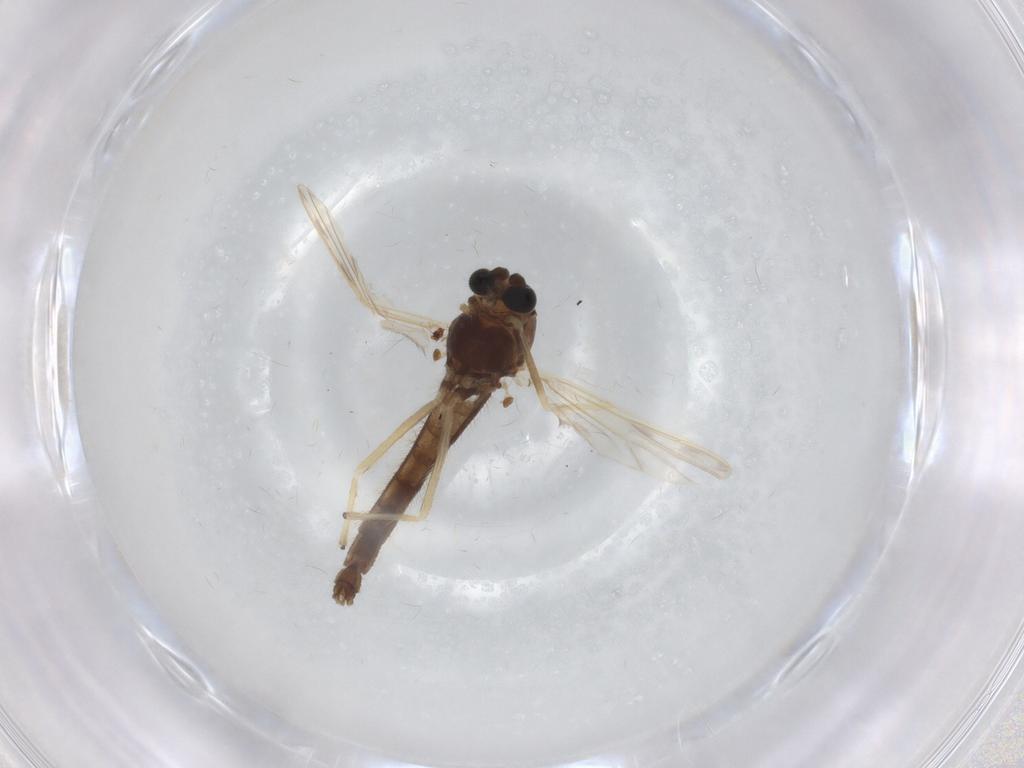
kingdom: Animalia
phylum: Arthropoda
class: Insecta
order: Diptera
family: Chironomidae
